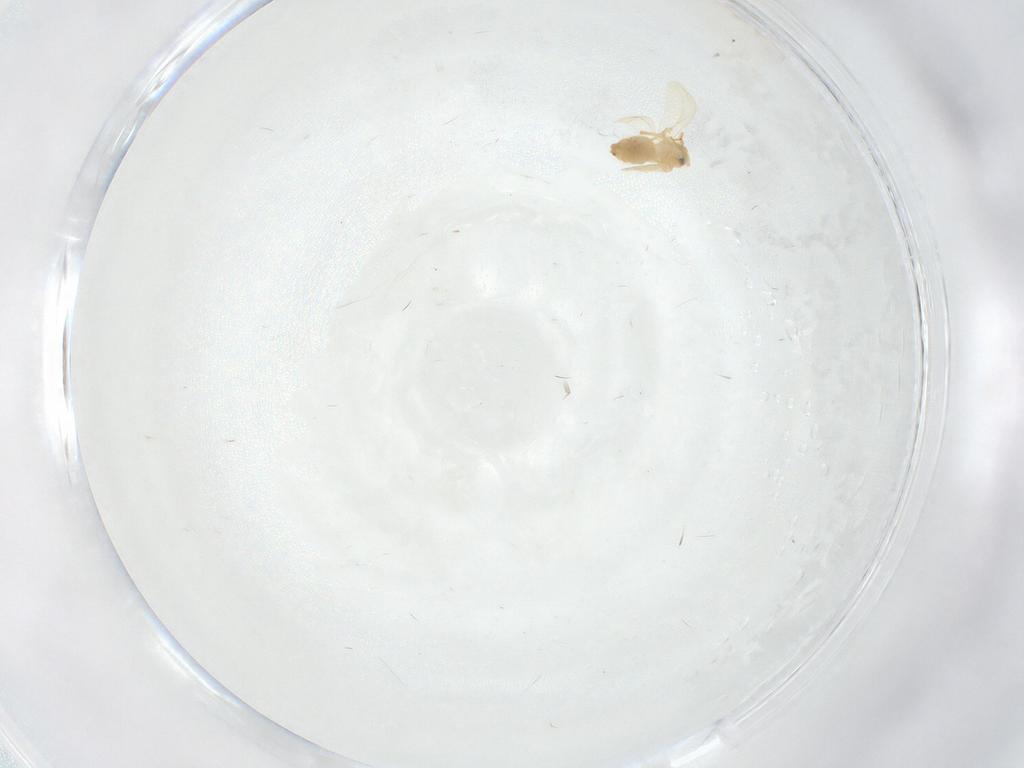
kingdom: Animalia
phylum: Arthropoda
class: Insecta
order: Hemiptera
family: Aleyrodidae
